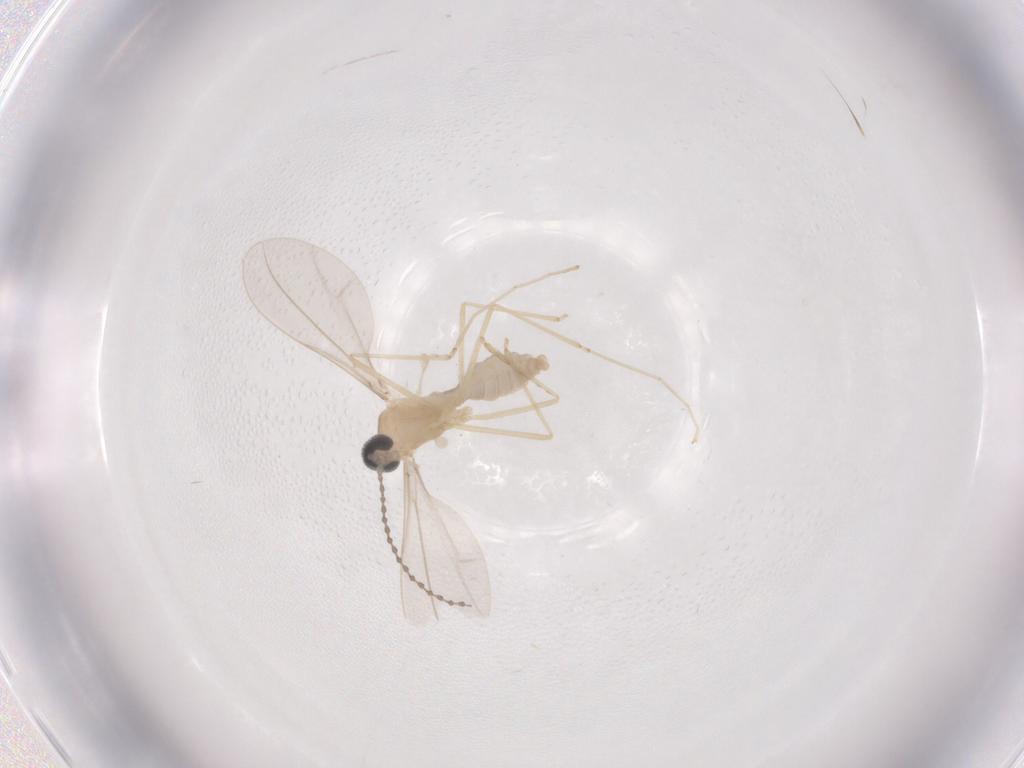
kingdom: Animalia
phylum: Arthropoda
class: Insecta
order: Diptera
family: Cecidomyiidae
